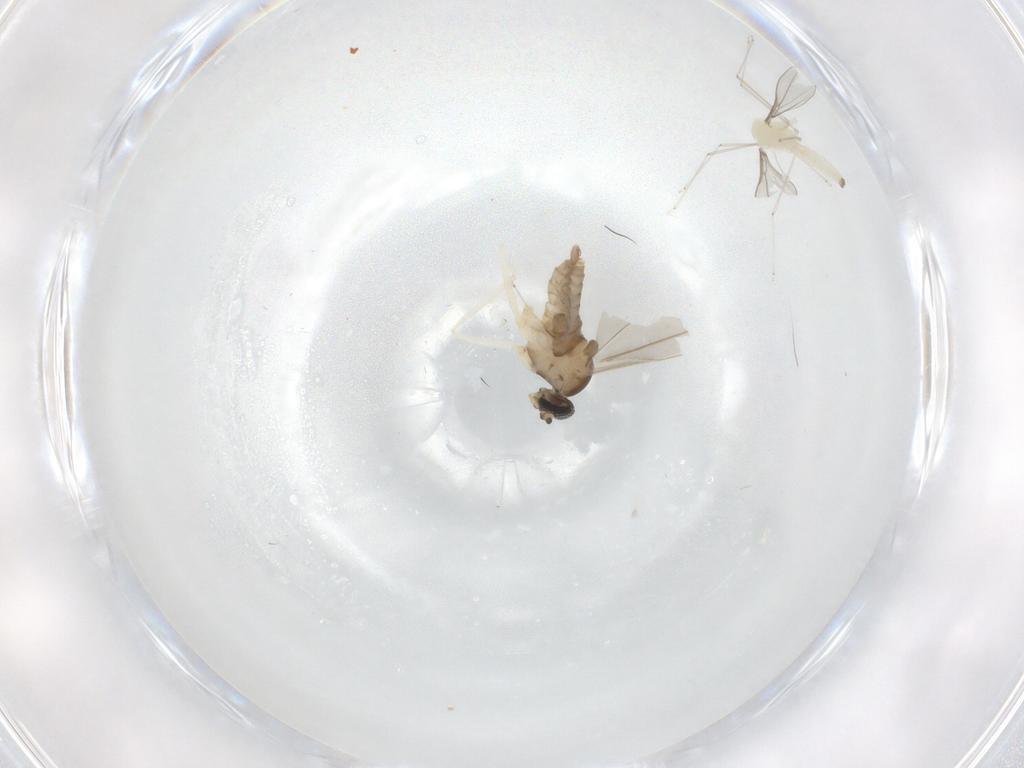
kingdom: Animalia
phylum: Arthropoda
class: Insecta
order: Diptera
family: Cecidomyiidae
